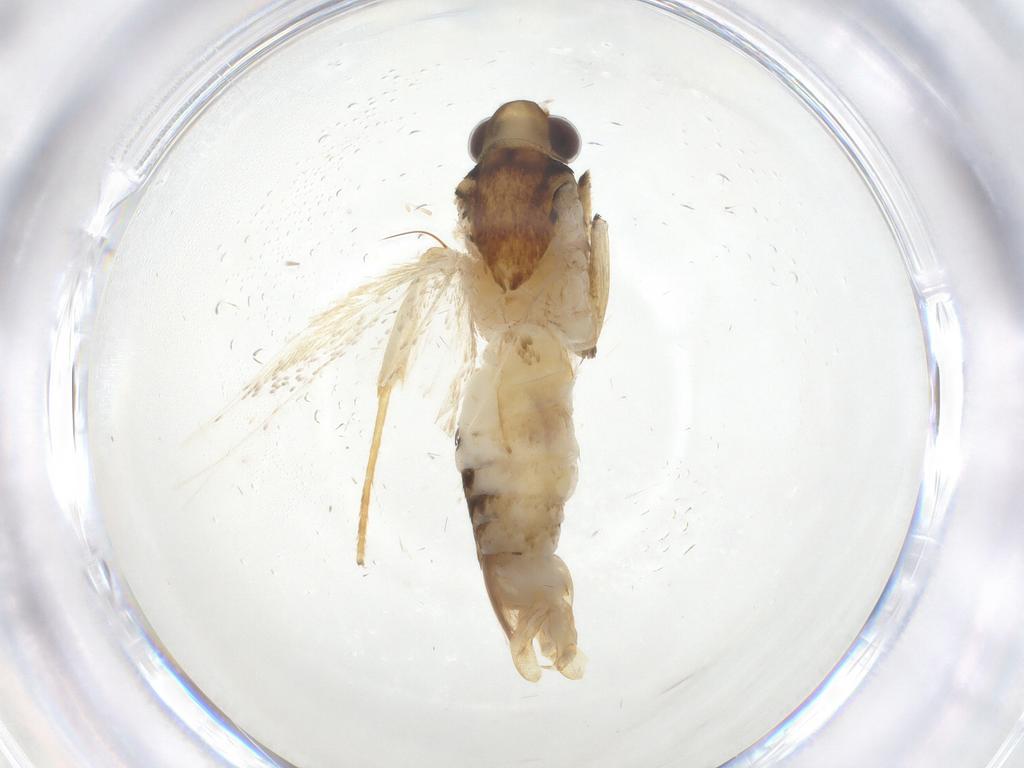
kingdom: Animalia
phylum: Arthropoda
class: Insecta
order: Lepidoptera
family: Lecithoceridae
